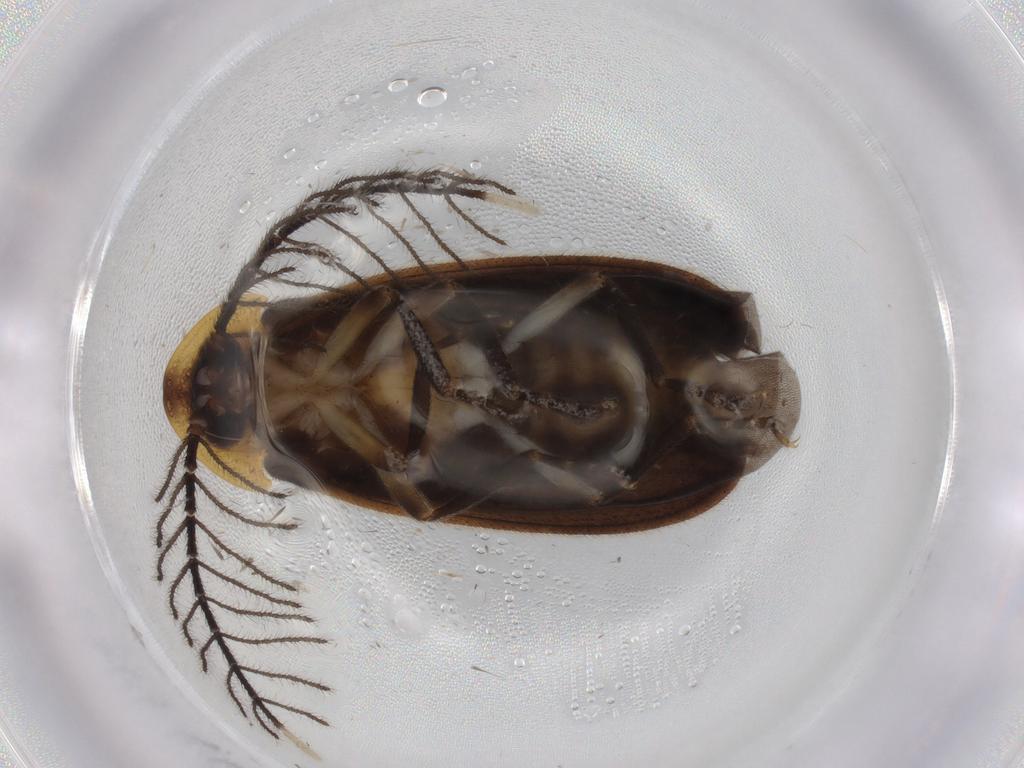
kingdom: Animalia
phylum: Arthropoda
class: Insecta
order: Coleoptera
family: Lampyridae
